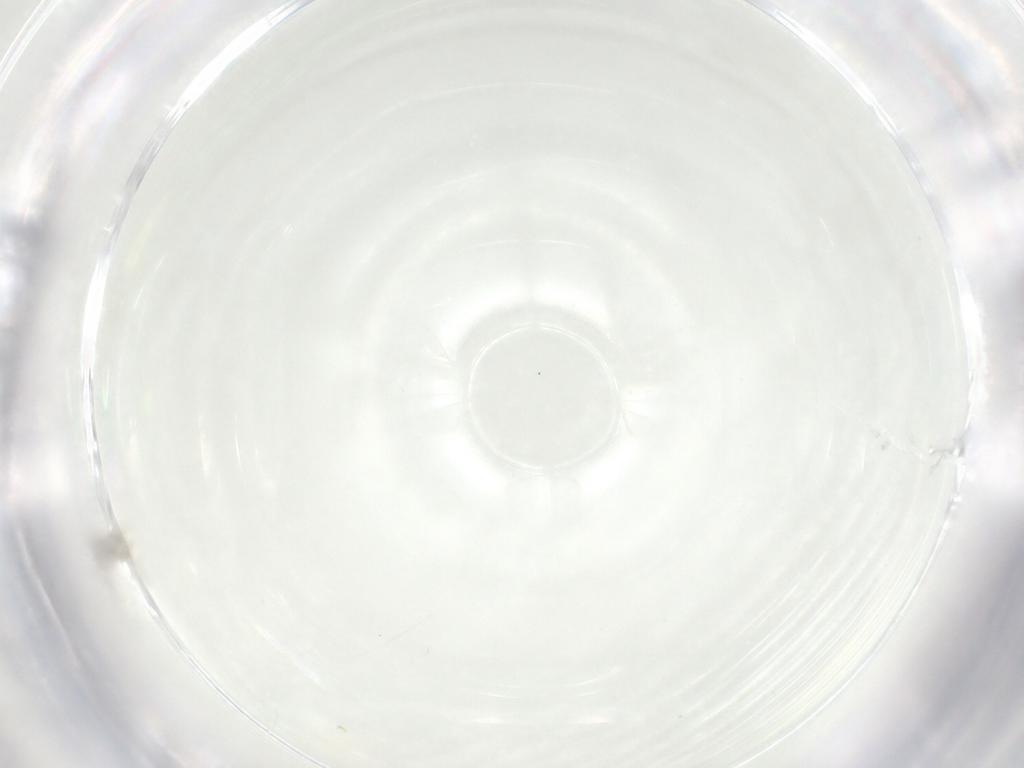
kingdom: Animalia
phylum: Arthropoda
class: Arachnida
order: Trombidiformes
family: Eupodidae
